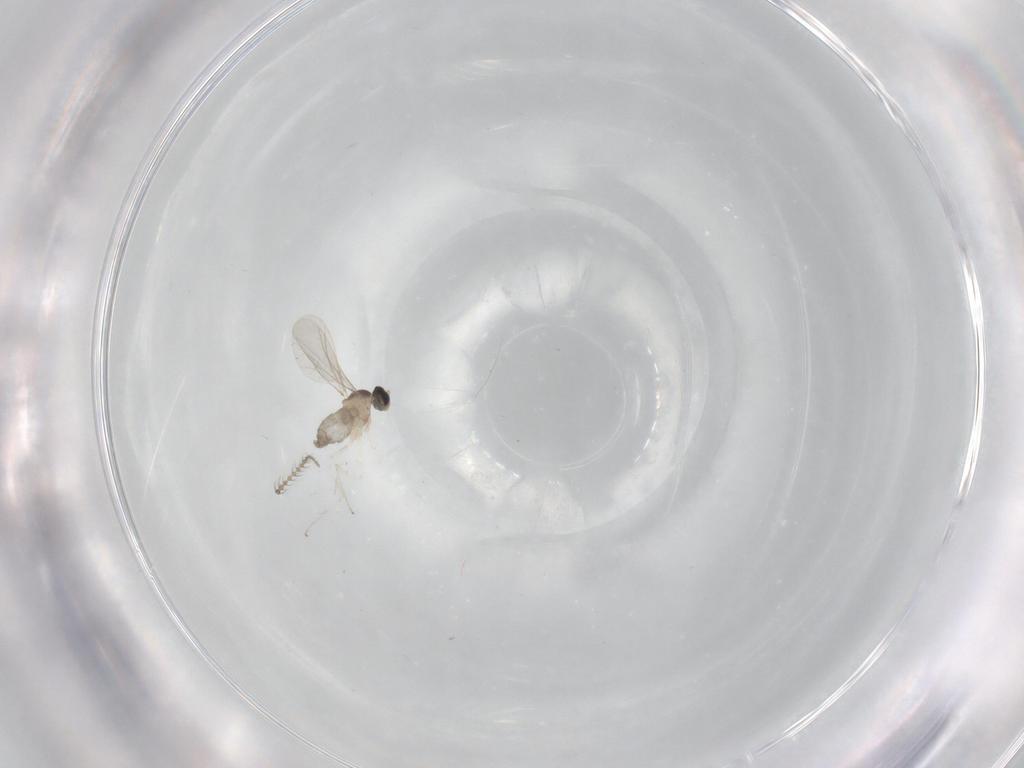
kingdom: Animalia
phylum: Arthropoda
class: Insecta
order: Diptera
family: Cecidomyiidae
